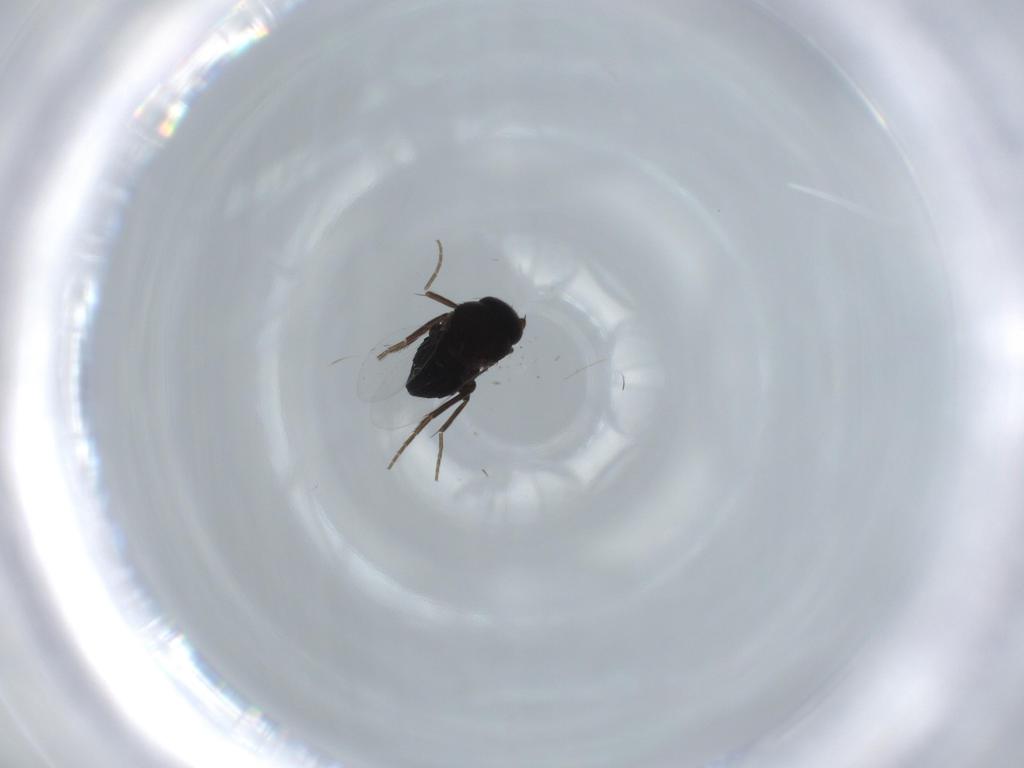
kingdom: Animalia
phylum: Arthropoda
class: Insecta
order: Diptera
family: Phoridae
